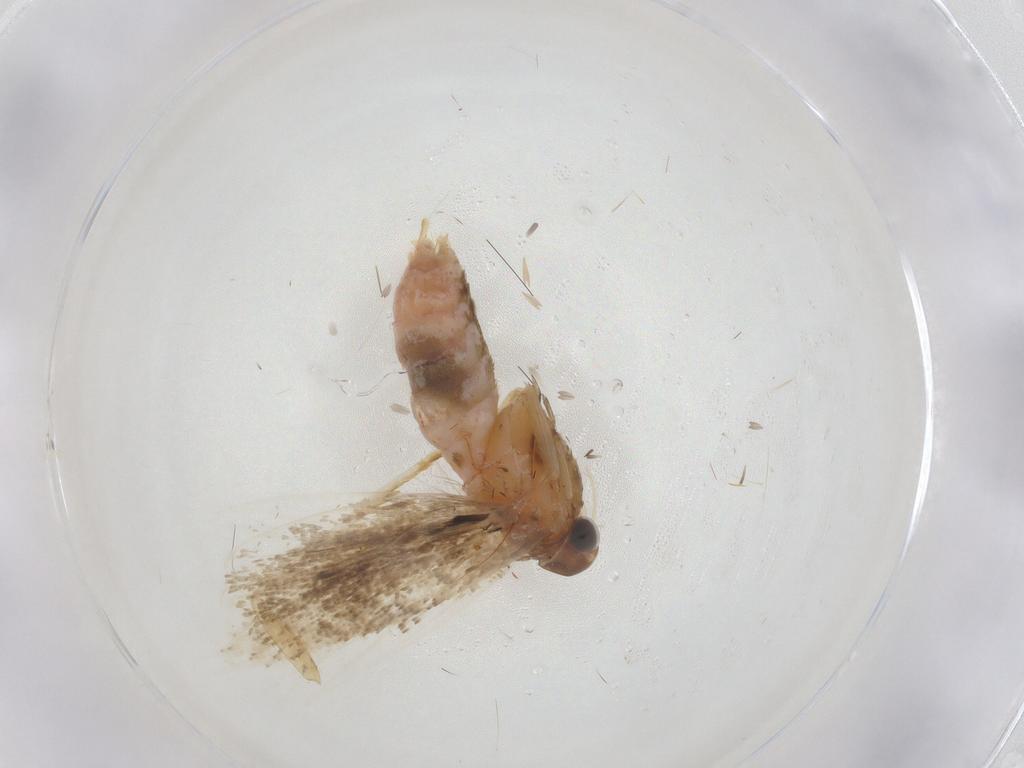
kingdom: Animalia
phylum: Arthropoda
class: Insecta
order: Lepidoptera
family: Gelechiidae
